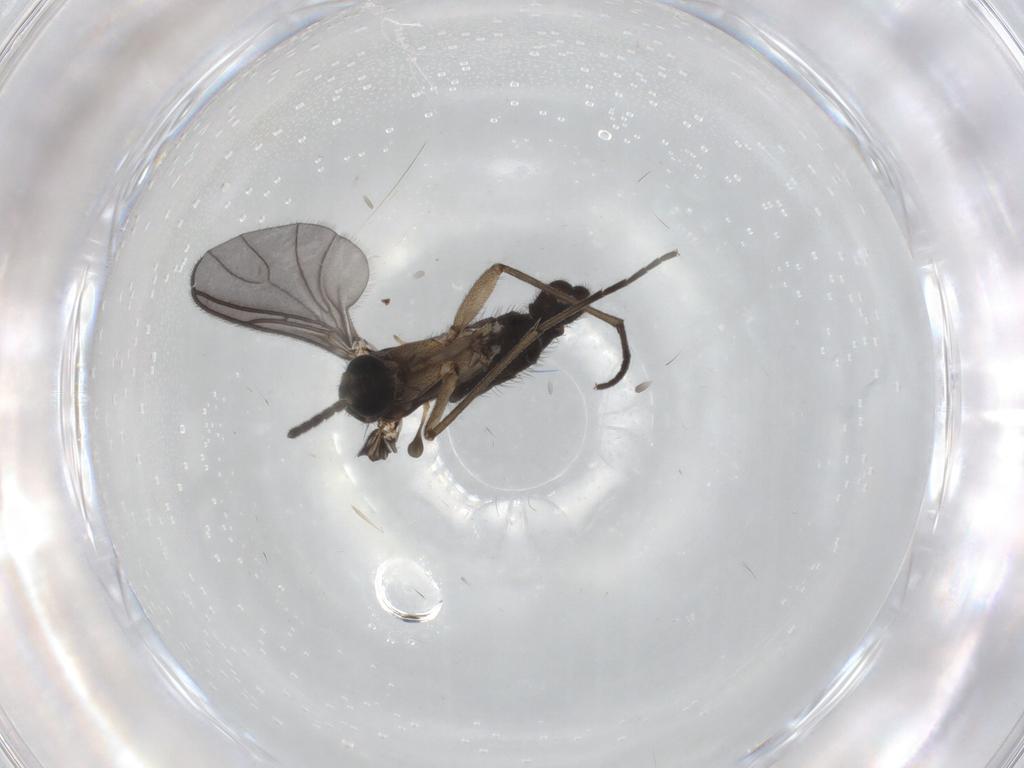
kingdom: Animalia
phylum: Arthropoda
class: Insecta
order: Diptera
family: Sciaridae
